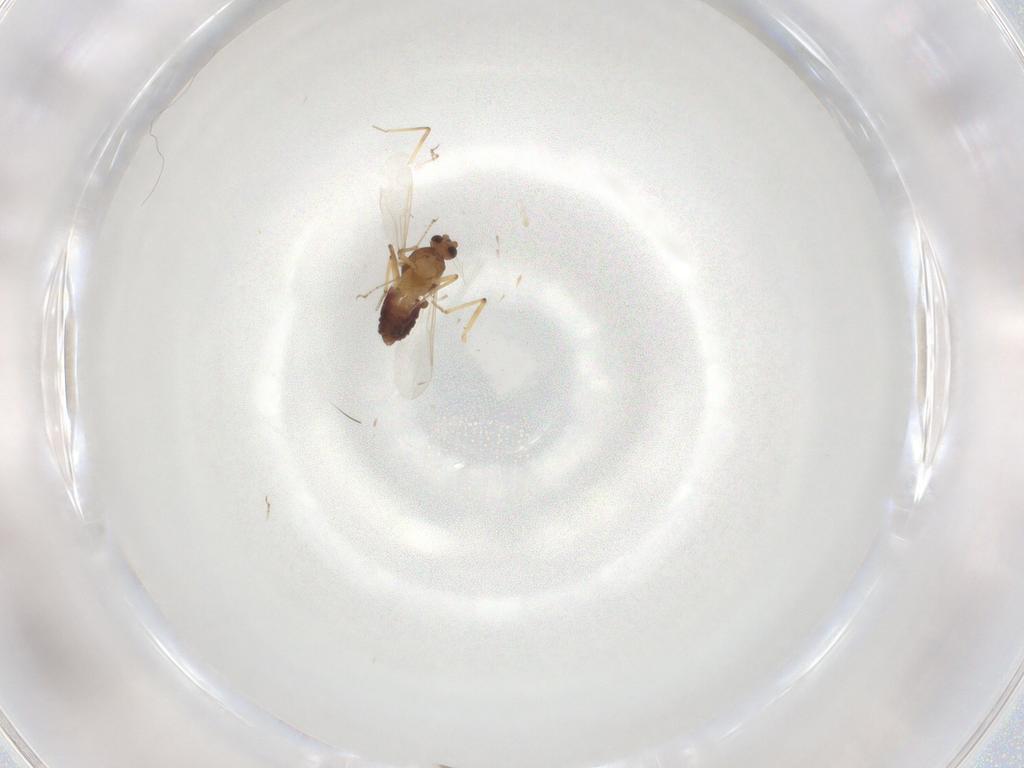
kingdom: Animalia
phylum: Arthropoda
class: Insecta
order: Diptera
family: Ceratopogonidae
